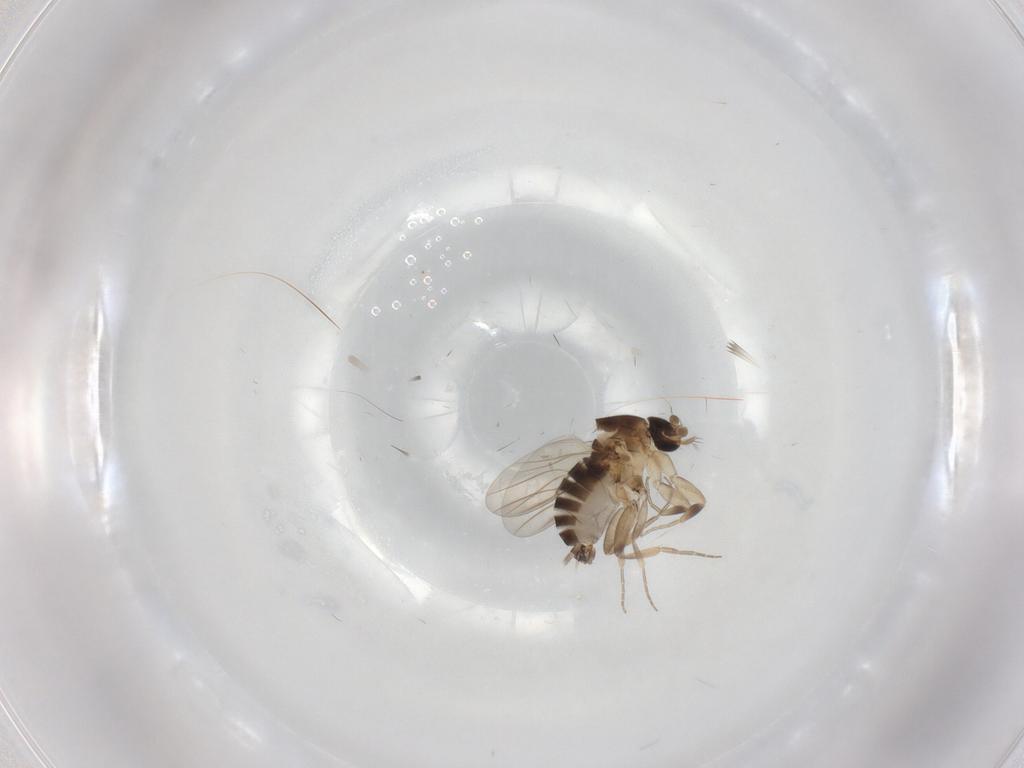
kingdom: Animalia
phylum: Arthropoda
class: Insecta
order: Diptera
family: Phoridae
